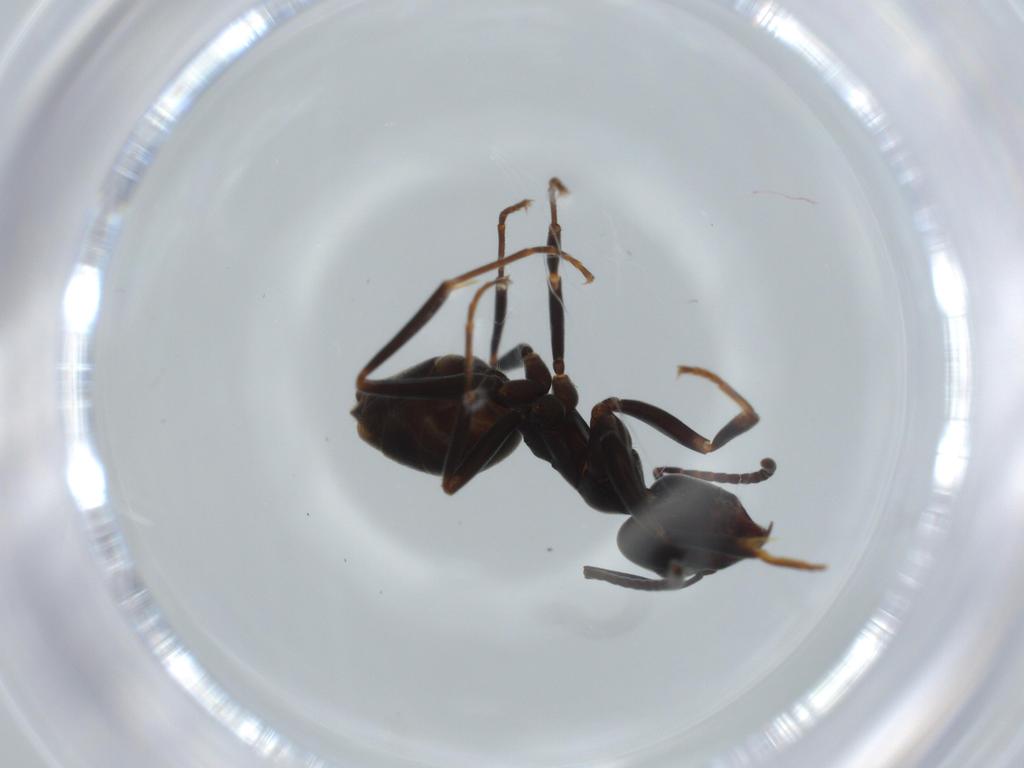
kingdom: Animalia
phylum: Arthropoda
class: Insecta
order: Hymenoptera
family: Formicidae
